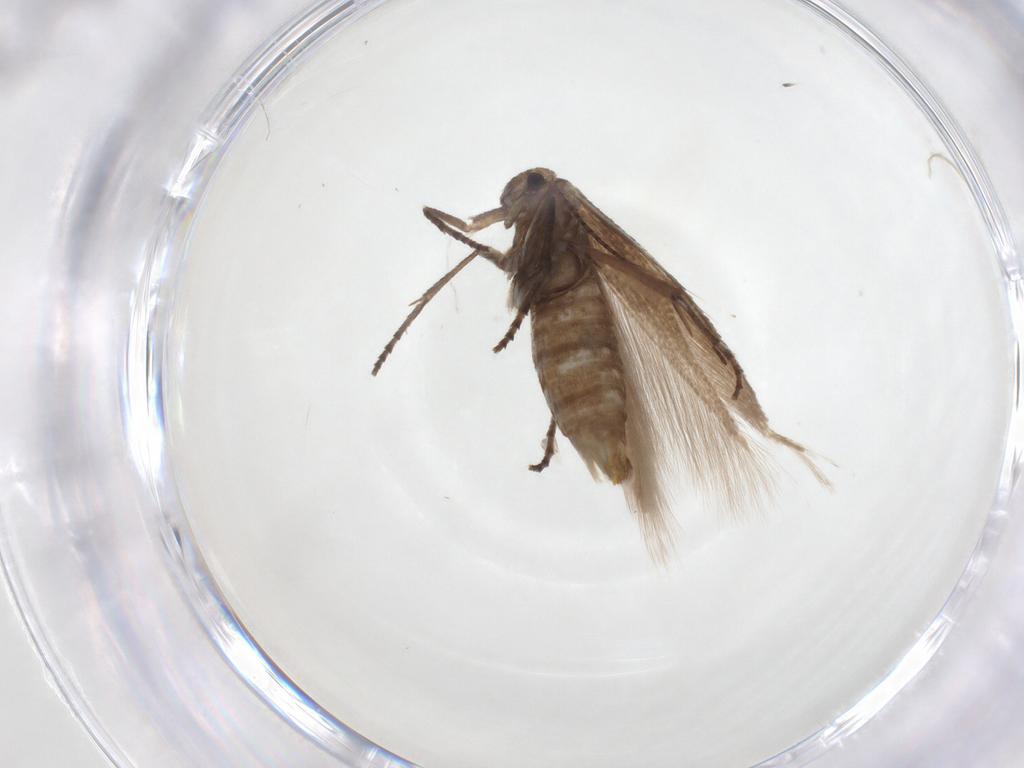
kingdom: Animalia
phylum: Arthropoda
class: Insecta
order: Lepidoptera
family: Bucculatricidae
